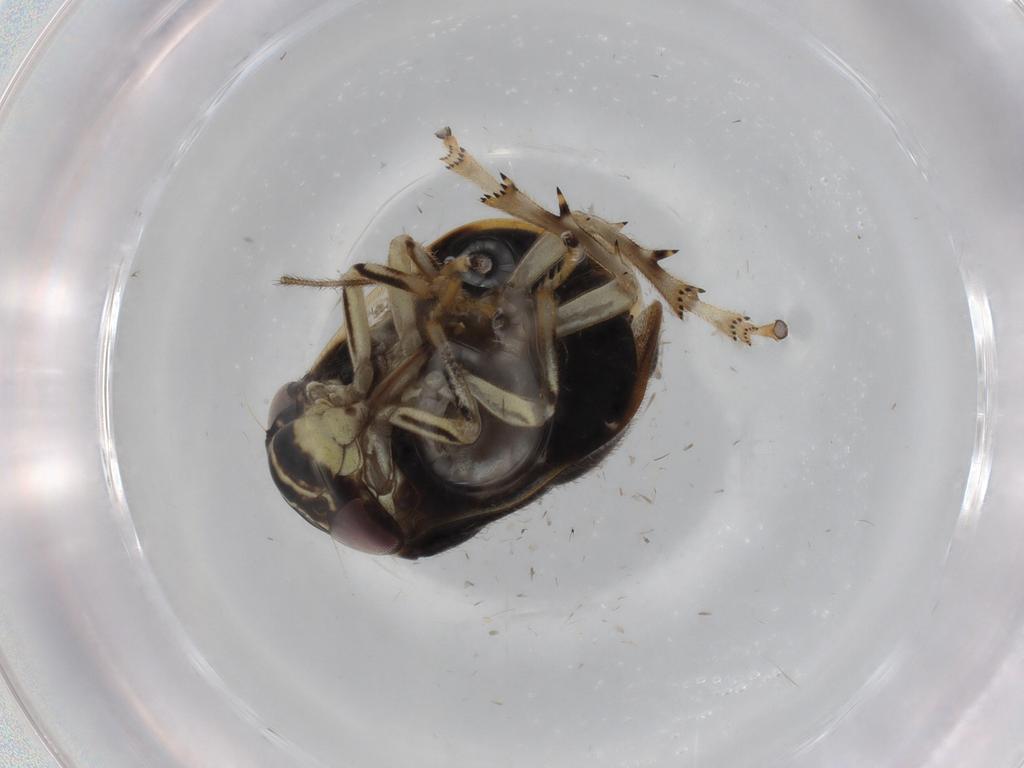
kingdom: Animalia
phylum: Arthropoda
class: Insecta
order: Hemiptera
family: Clastopteridae
